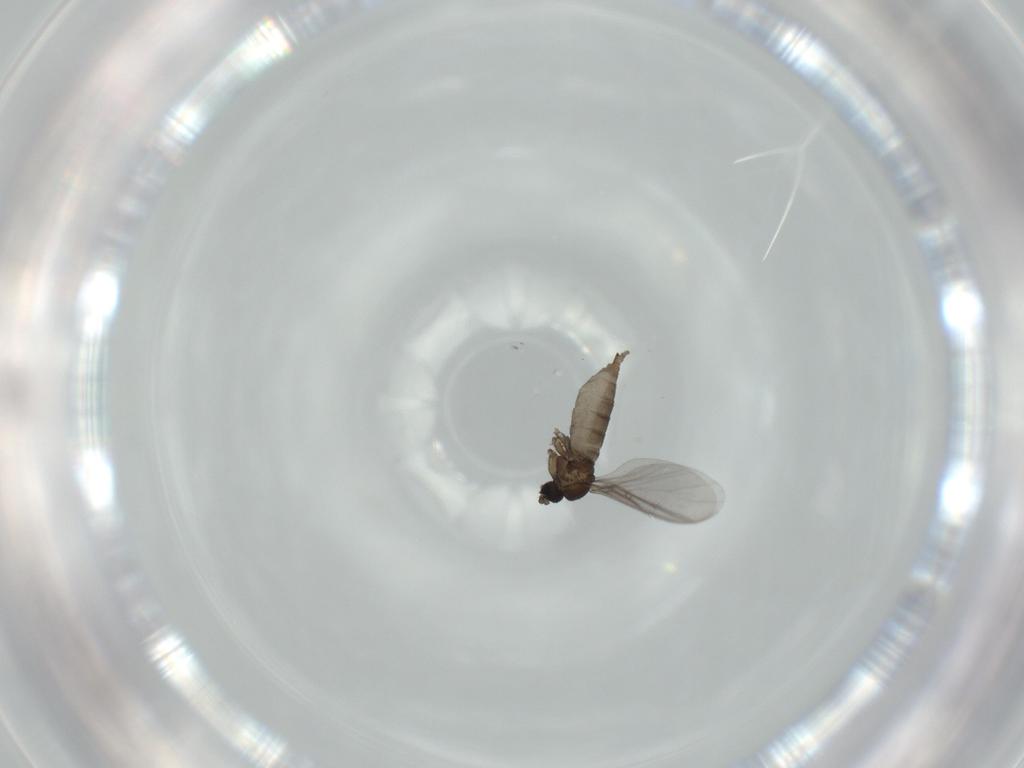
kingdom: Animalia
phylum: Arthropoda
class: Insecta
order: Diptera
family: Sciaridae
